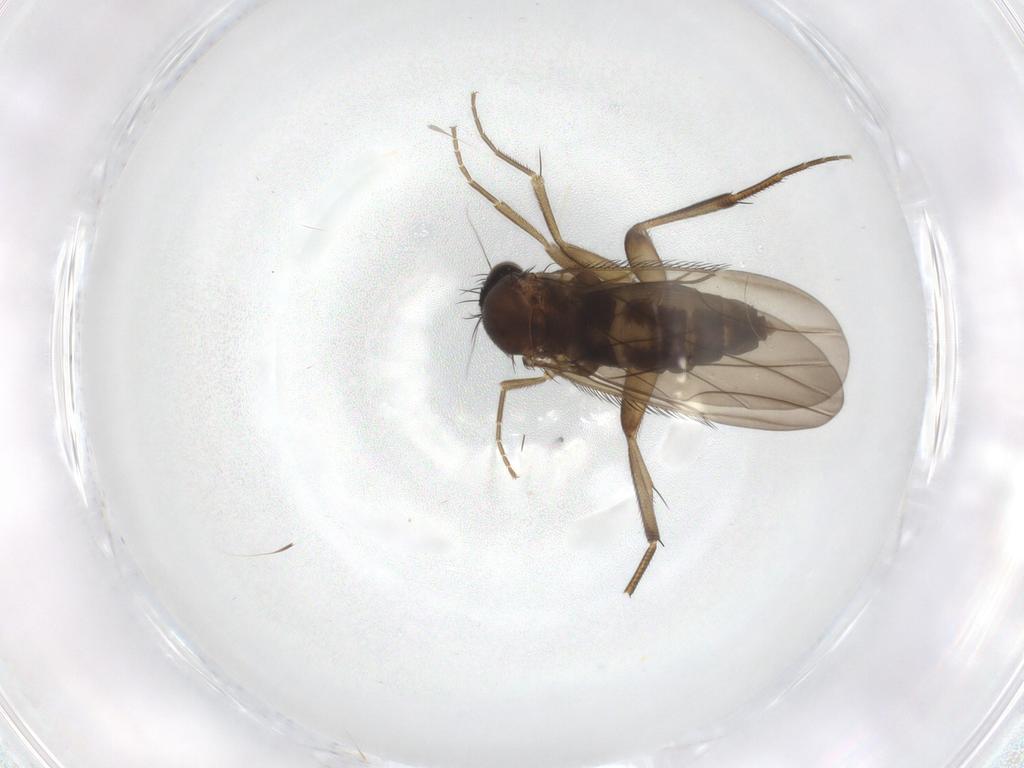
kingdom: Animalia
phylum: Arthropoda
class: Insecta
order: Diptera
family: Phoridae
